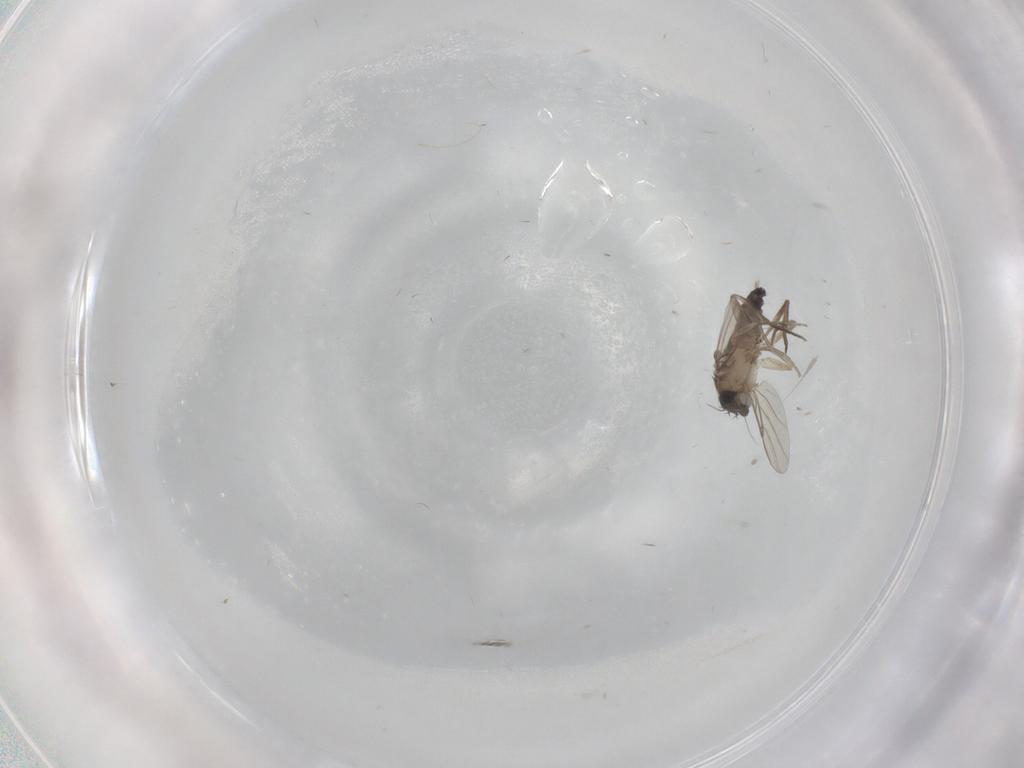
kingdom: Animalia
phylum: Arthropoda
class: Insecta
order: Diptera
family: Phoridae
